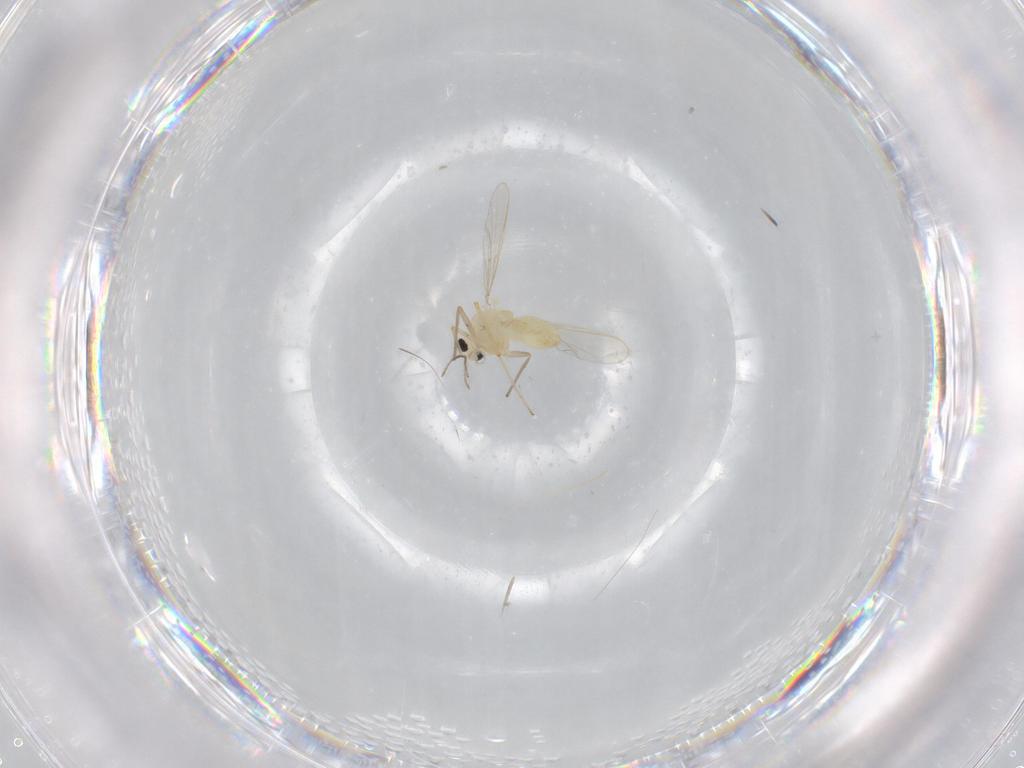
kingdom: Animalia
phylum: Arthropoda
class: Insecta
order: Diptera
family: Chironomidae
